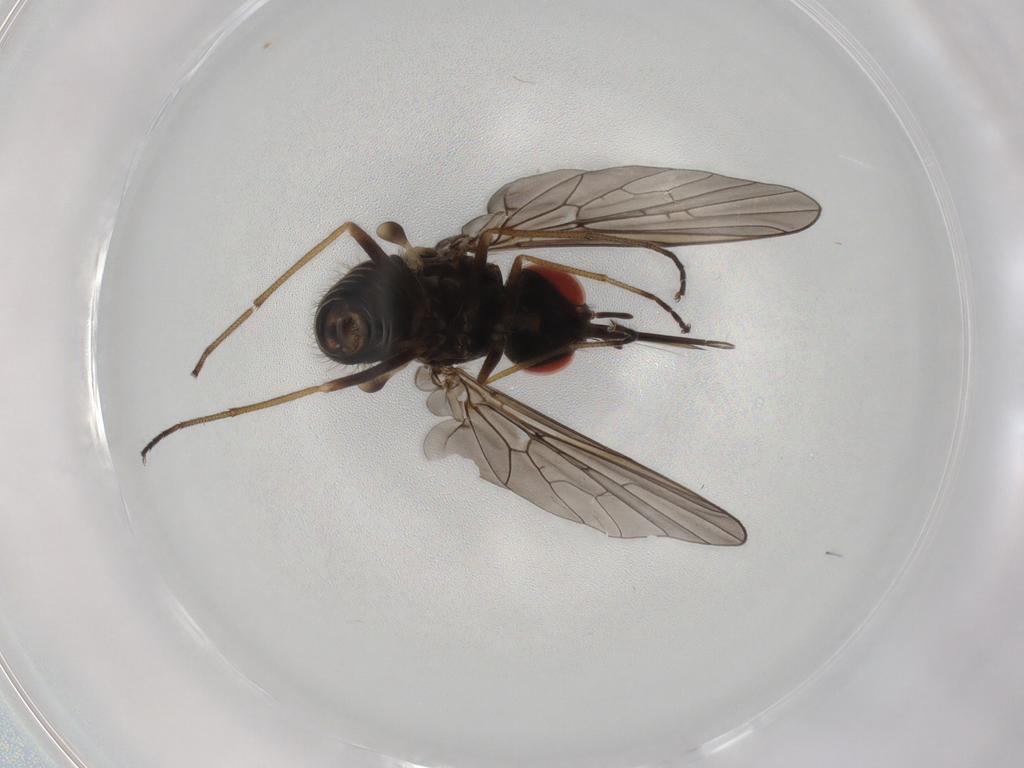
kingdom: Animalia
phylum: Arthropoda
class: Insecta
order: Diptera
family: Bombyliidae
